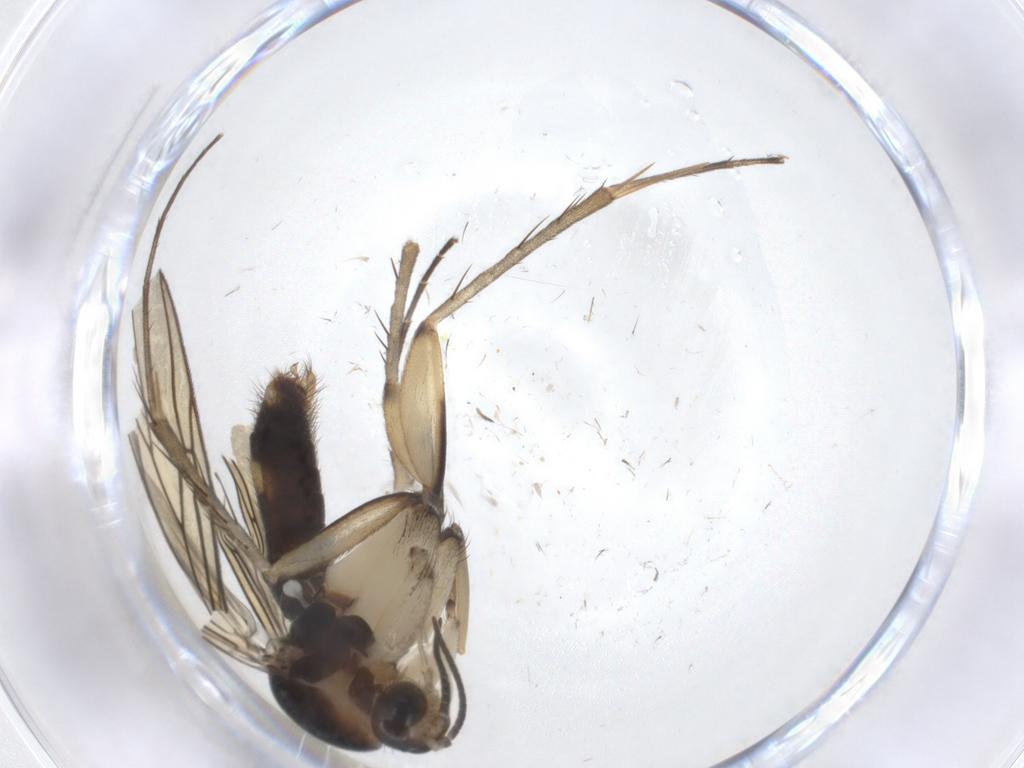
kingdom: Animalia
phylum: Arthropoda
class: Insecta
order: Diptera
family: Mycetophilidae
